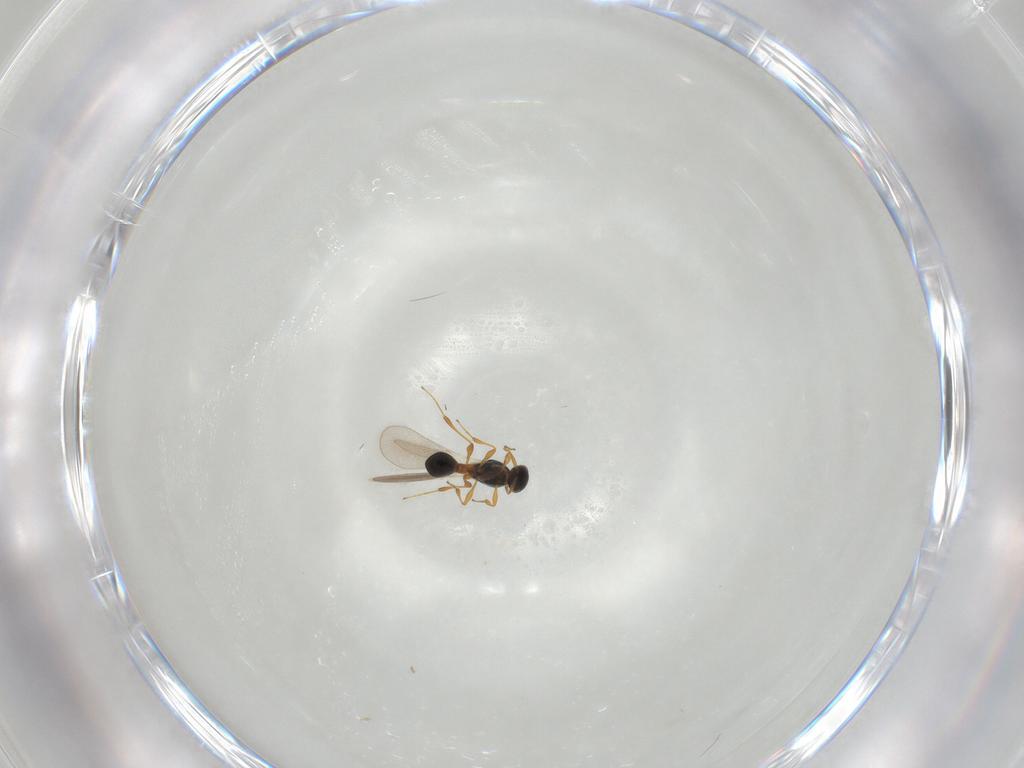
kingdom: Animalia
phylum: Arthropoda
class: Insecta
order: Hymenoptera
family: Platygastridae
